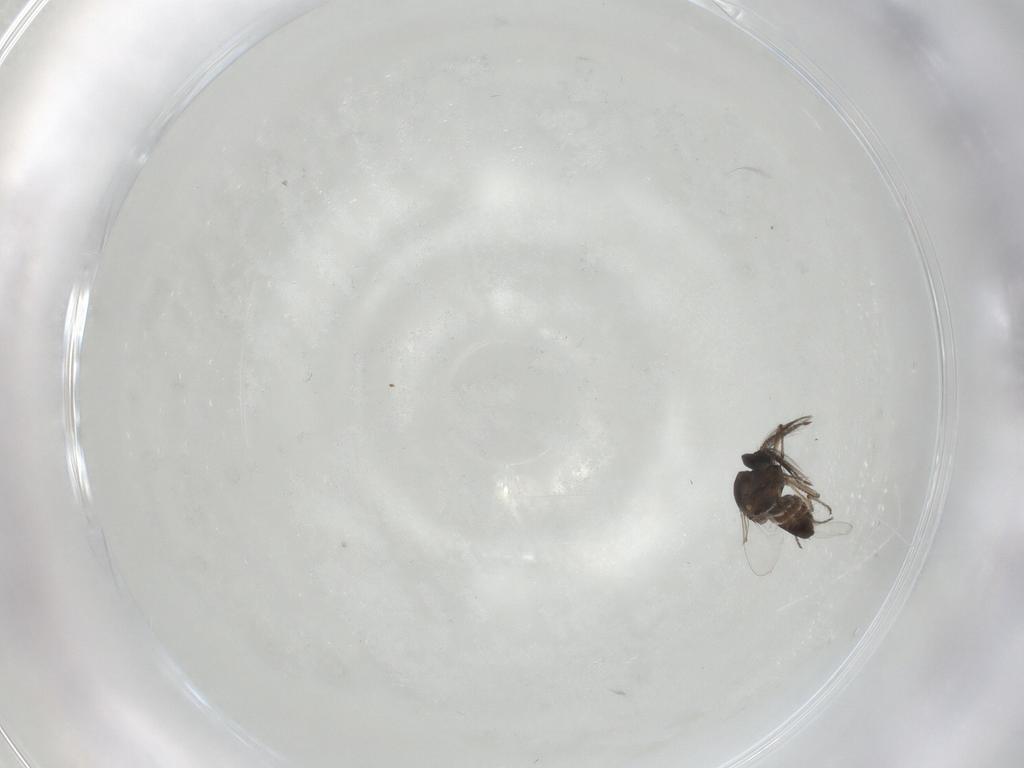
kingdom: Animalia
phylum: Arthropoda
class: Insecta
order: Diptera
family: Ceratopogonidae
